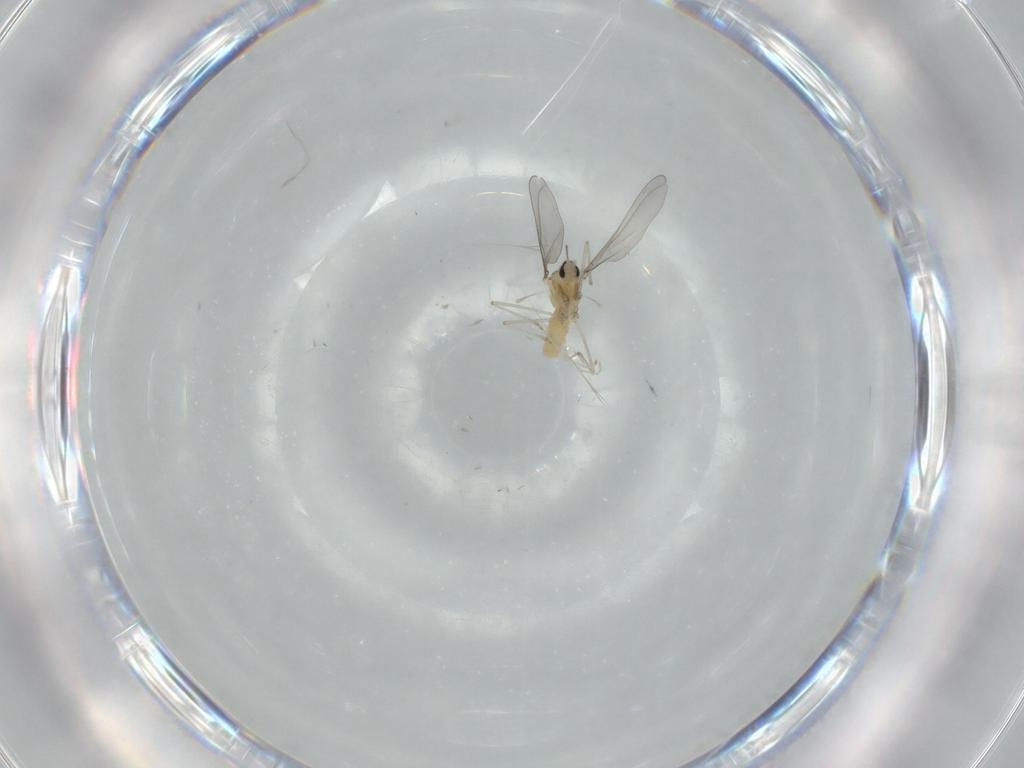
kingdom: Animalia
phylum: Arthropoda
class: Insecta
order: Diptera
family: Cecidomyiidae
